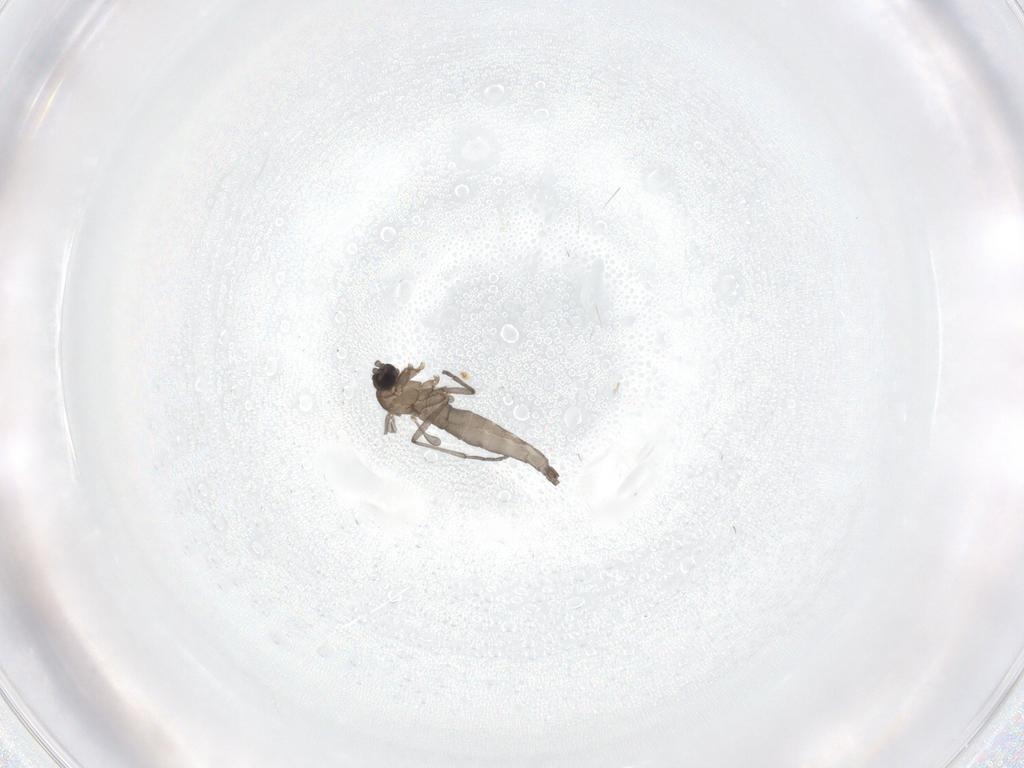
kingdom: Animalia
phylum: Arthropoda
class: Insecta
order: Diptera
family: Sciaridae
